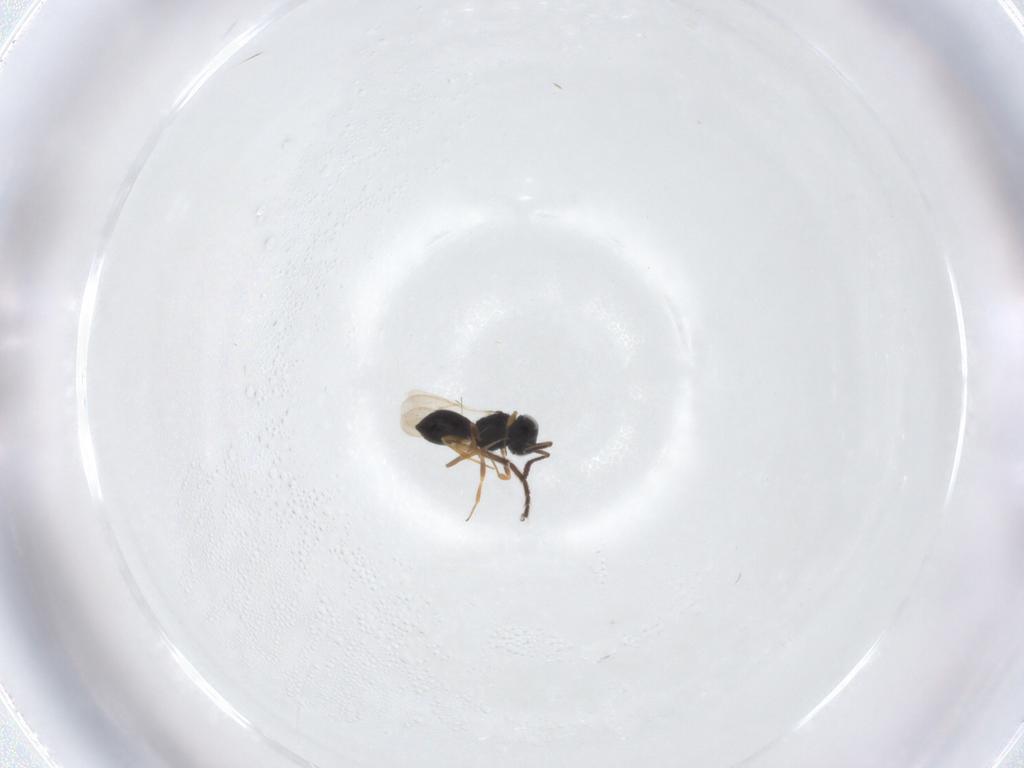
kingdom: Animalia
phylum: Arthropoda
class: Insecta
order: Hymenoptera
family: Scelionidae
